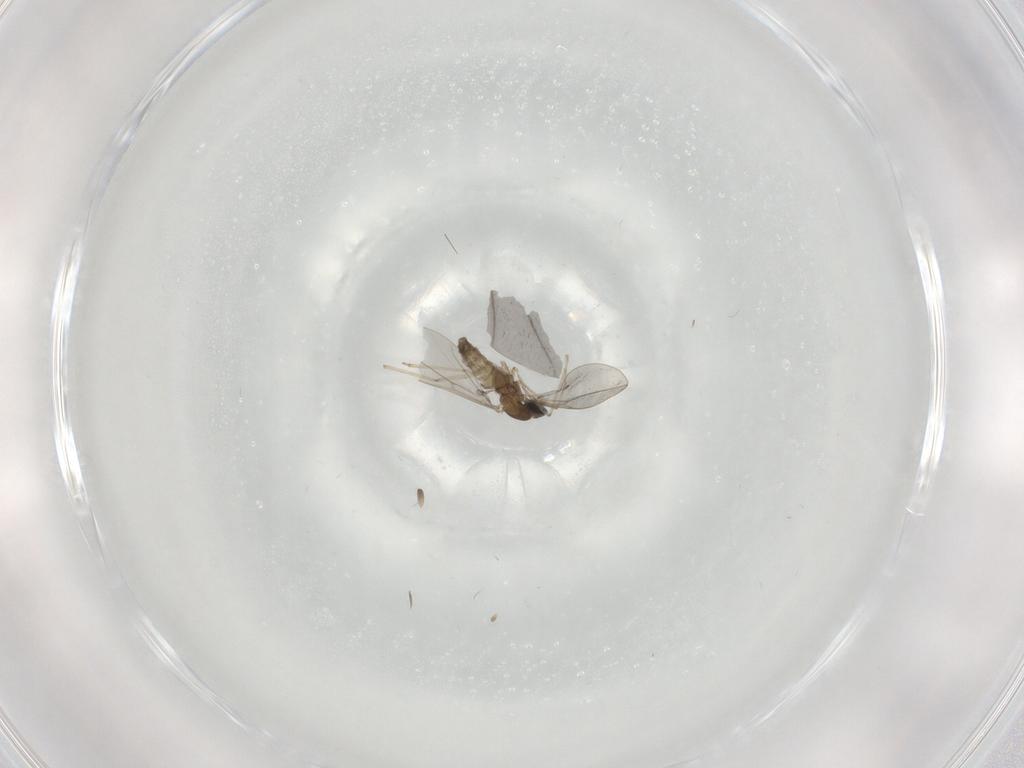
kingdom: Animalia
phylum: Arthropoda
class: Insecta
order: Diptera
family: Cecidomyiidae
